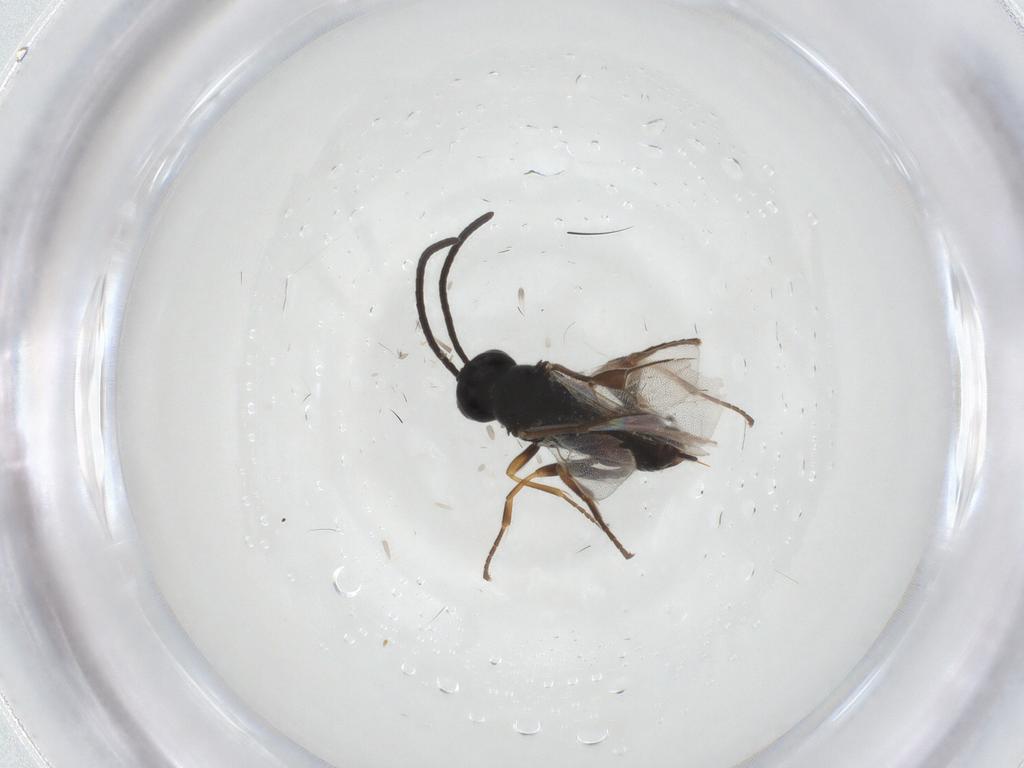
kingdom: Animalia
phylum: Arthropoda
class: Insecta
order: Hymenoptera
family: Braconidae
